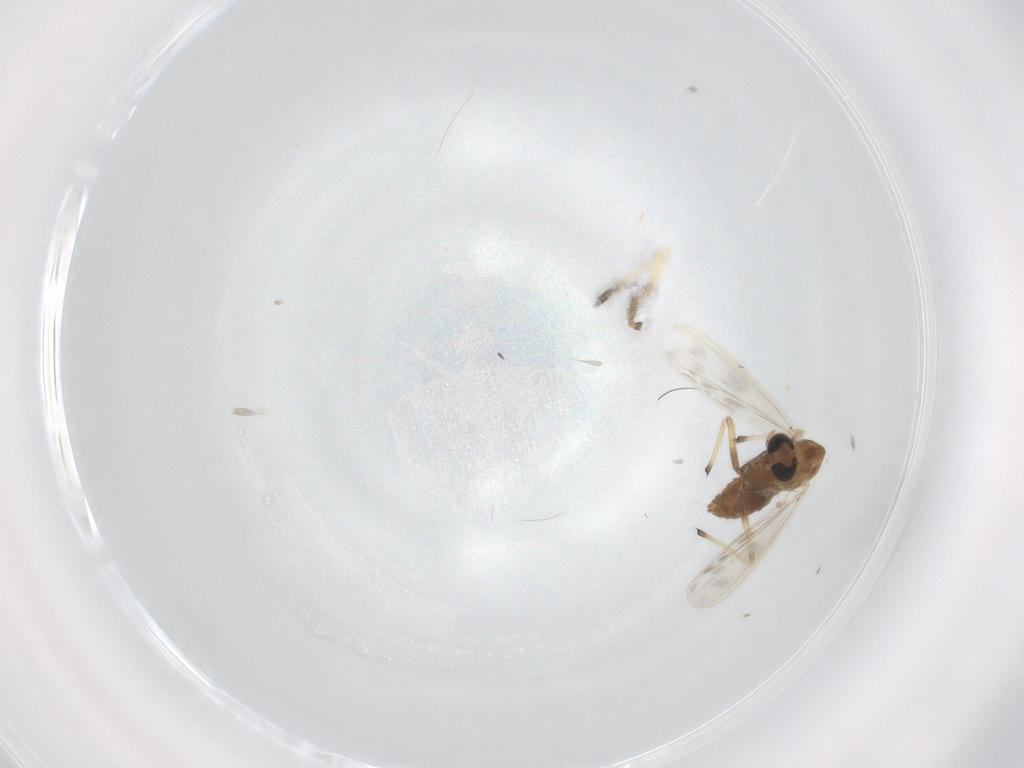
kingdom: Animalia
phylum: Arthropoda
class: Insecta
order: Diptera
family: Chironomidae
